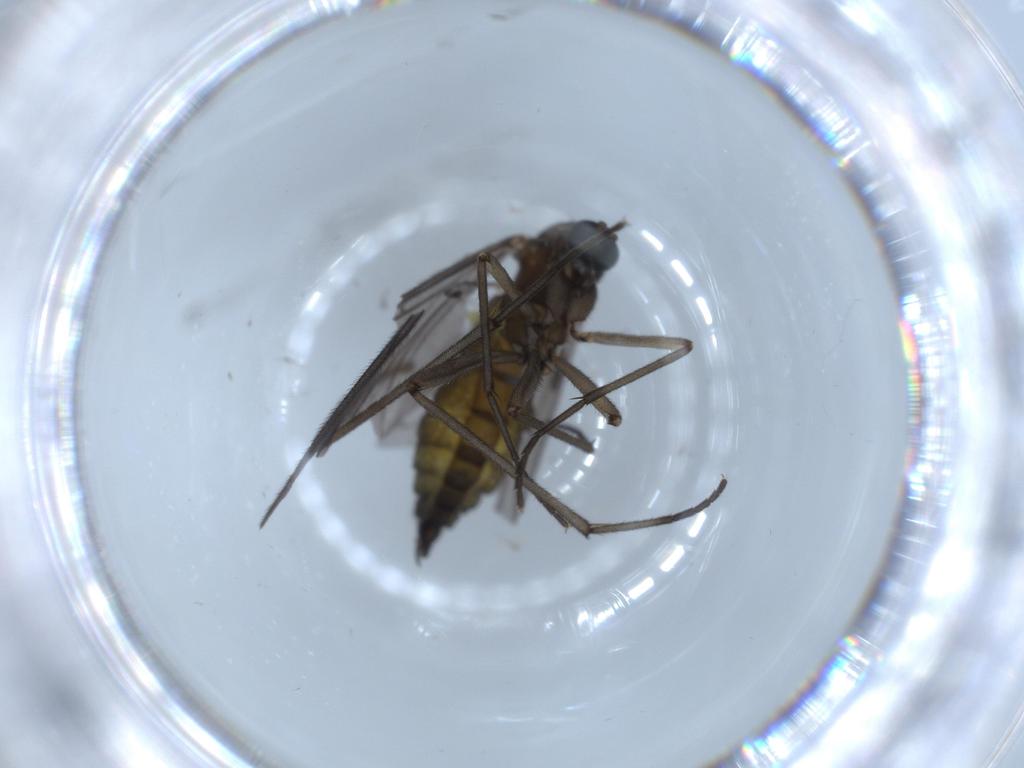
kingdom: Animalia
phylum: Arthropoda
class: Insecta
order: Diptera
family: Sciaridae
